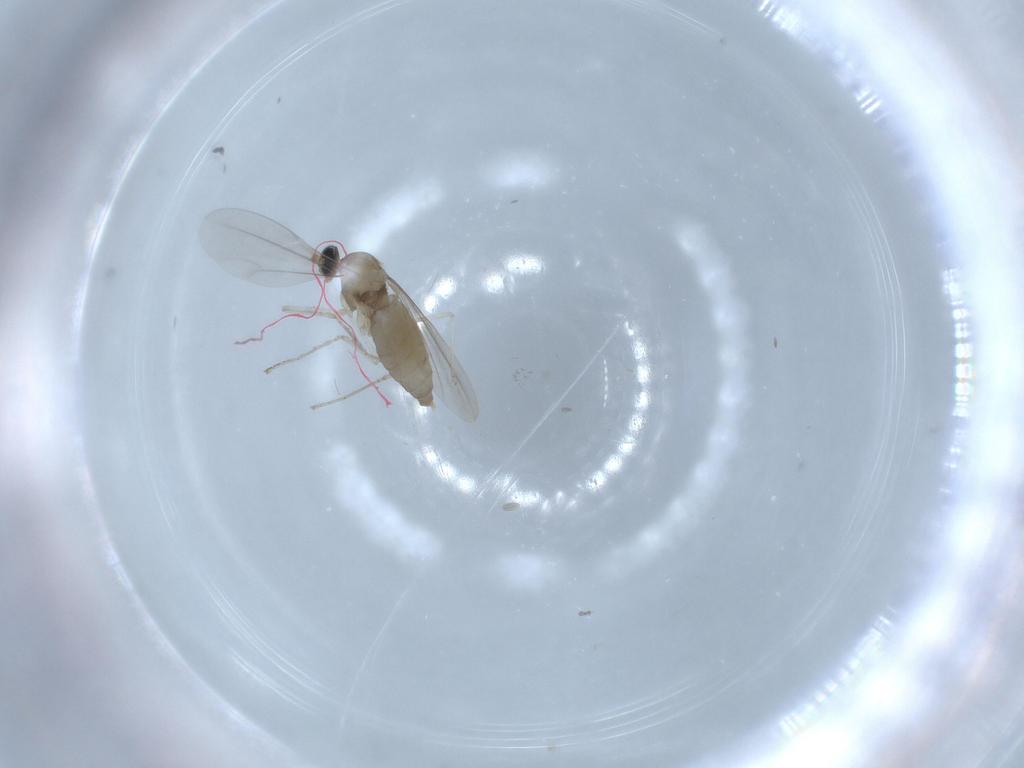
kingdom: Animalia
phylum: Arthropoda
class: Insecta
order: Diptera
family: Cecidomyiidae
